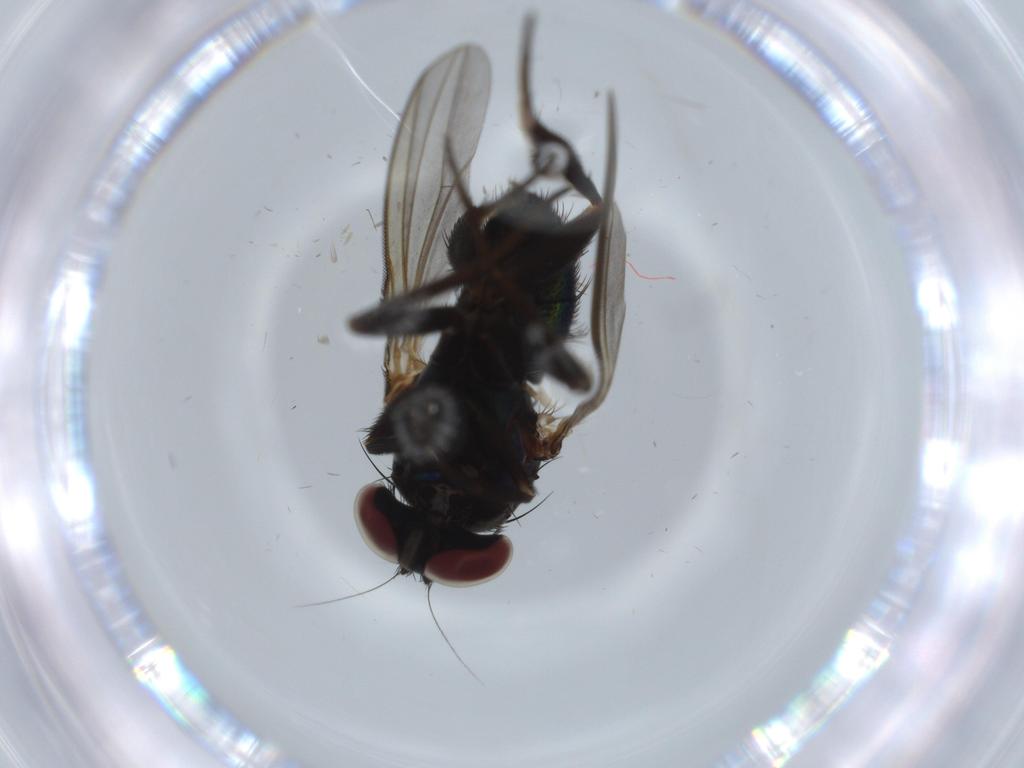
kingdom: Animalia
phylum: Arthropoda
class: Insecta
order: Diptera
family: Dolichopodidae
